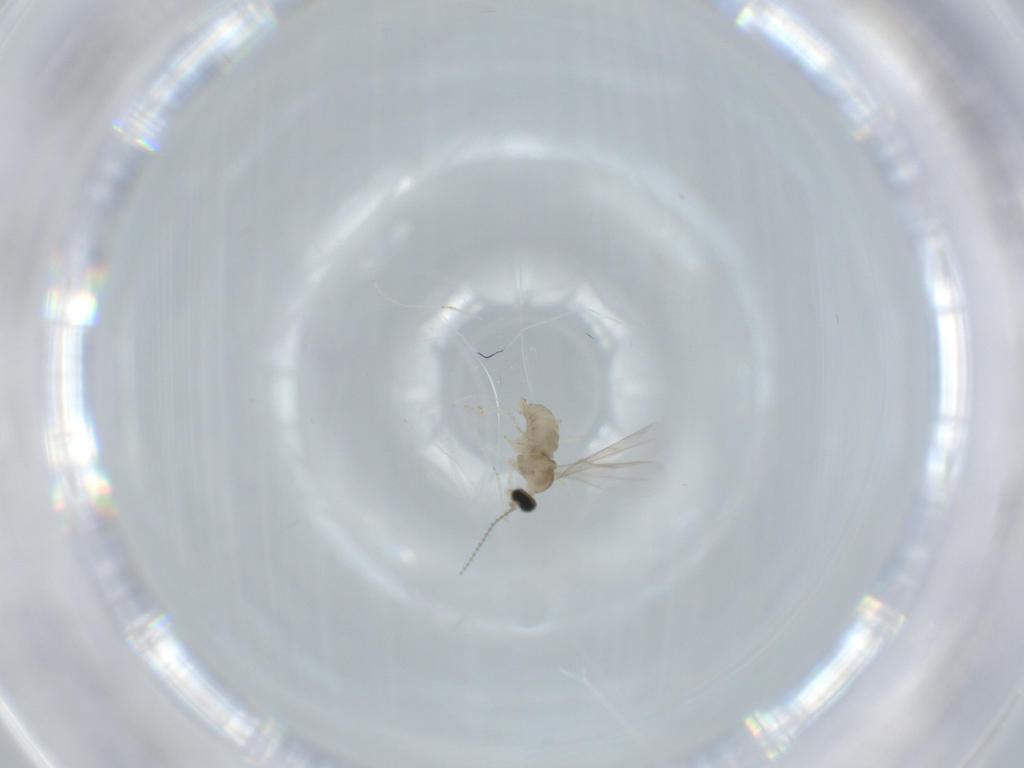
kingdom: Animalia
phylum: Arthropoda
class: Insecta
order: Diptera
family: Cecidomyiidae
